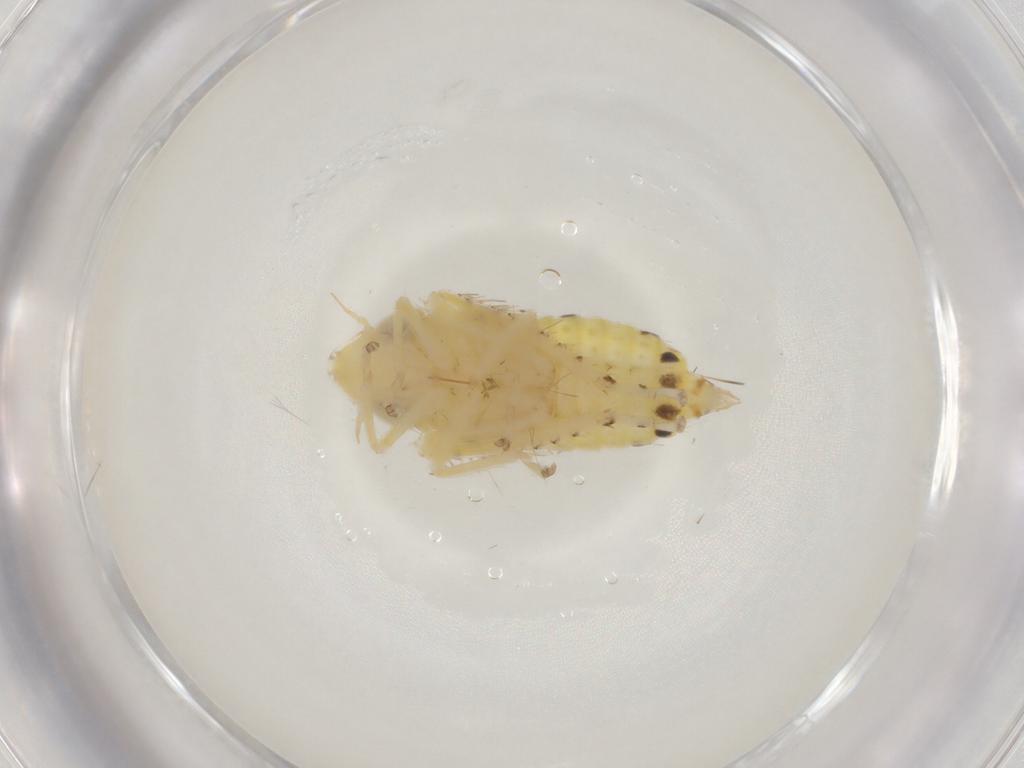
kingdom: Animalia
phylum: Arthropoda
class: Insecta
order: Hemiptera
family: Cicadellidae
